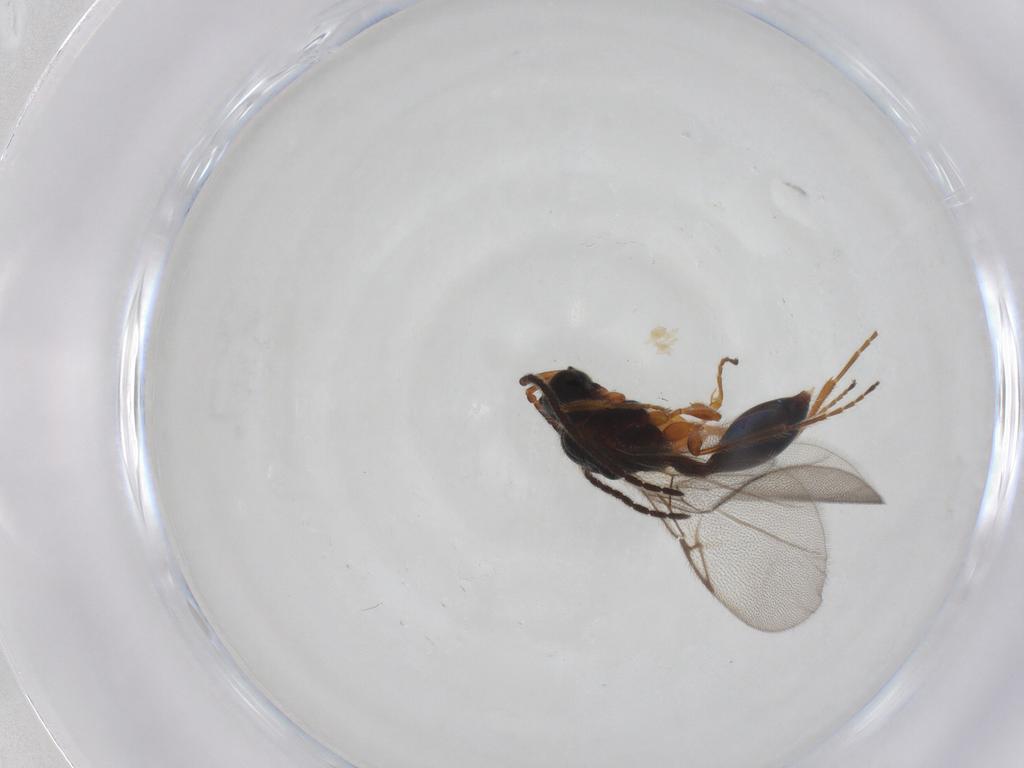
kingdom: Animalia
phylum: Arthropoda
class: Insecta
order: Hymenoptera
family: Diapriidae
